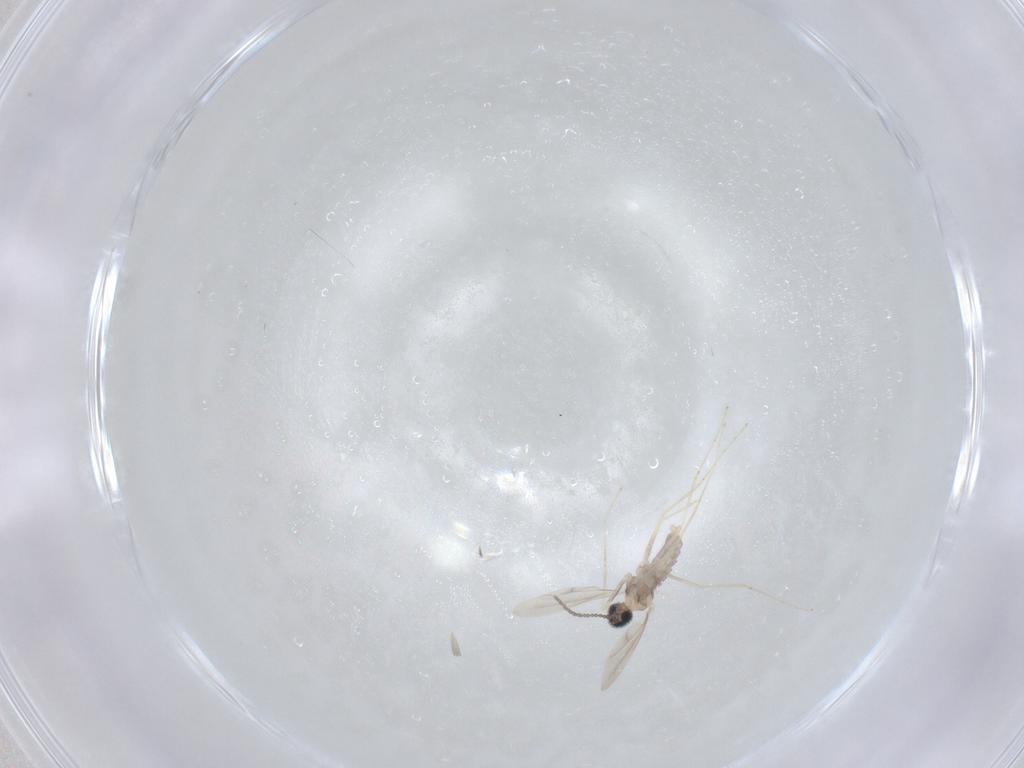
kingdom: Animalia
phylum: Arthropoda
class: Insecta
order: Diptera
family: Cecidomyiidae
